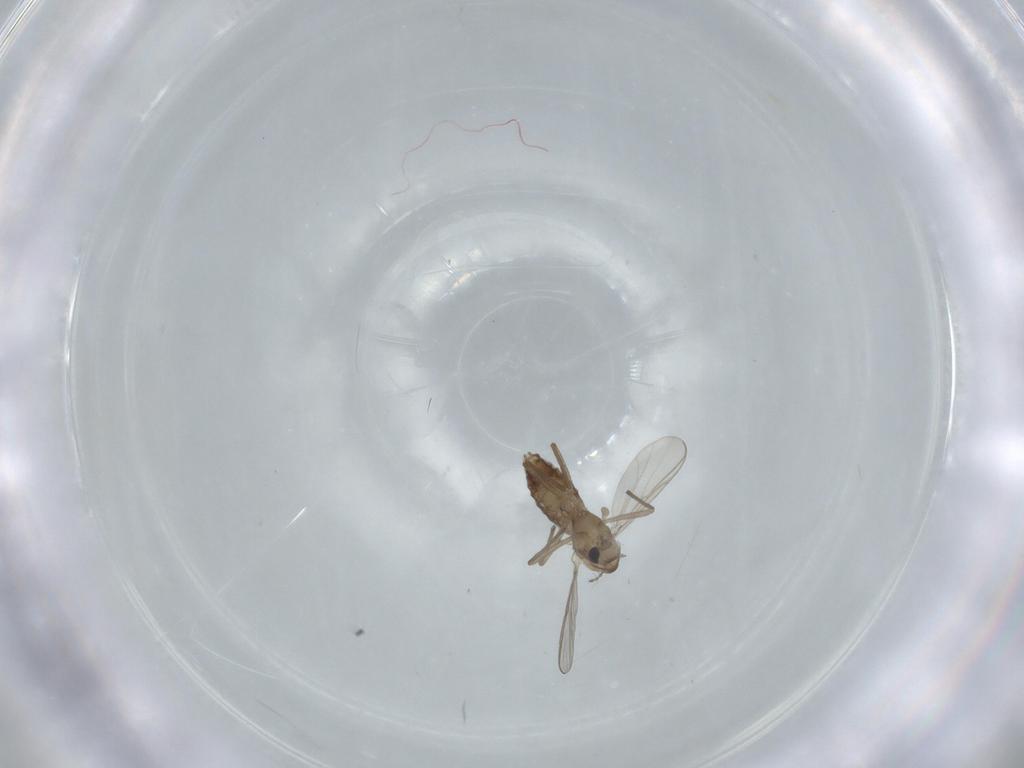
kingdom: Animalia
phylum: Arthropoda
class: Insecta
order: Diptera
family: Chironomidae
